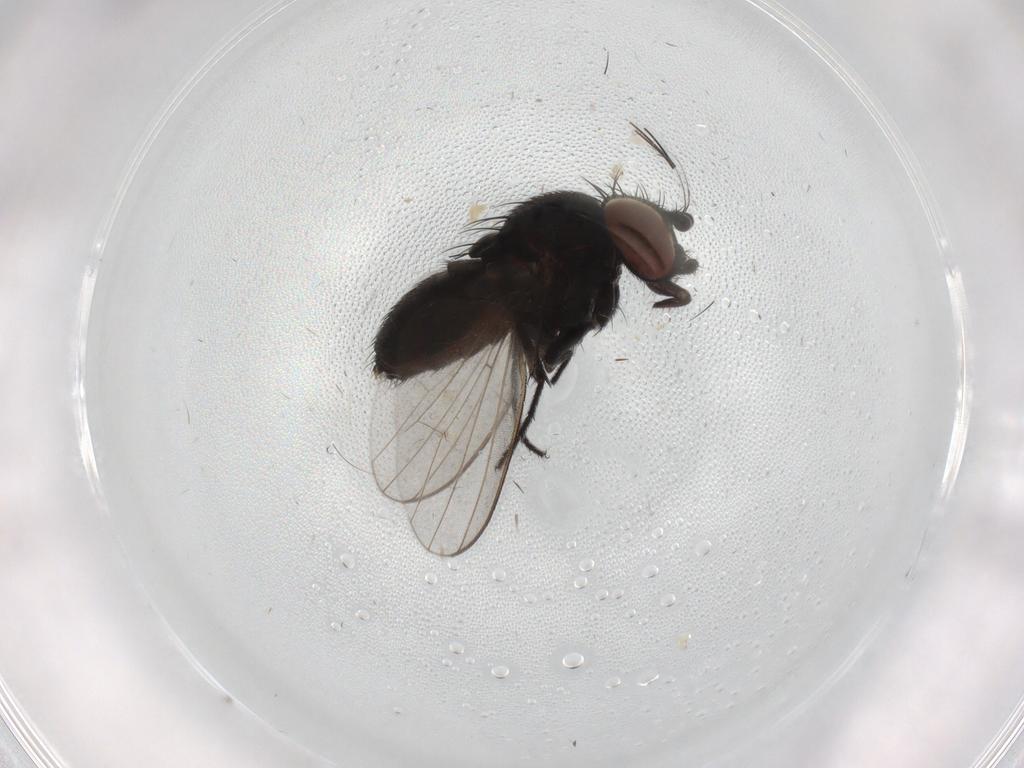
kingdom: Animalia
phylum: Arthropoda
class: Insecta
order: Diptera
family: Milichiidae
